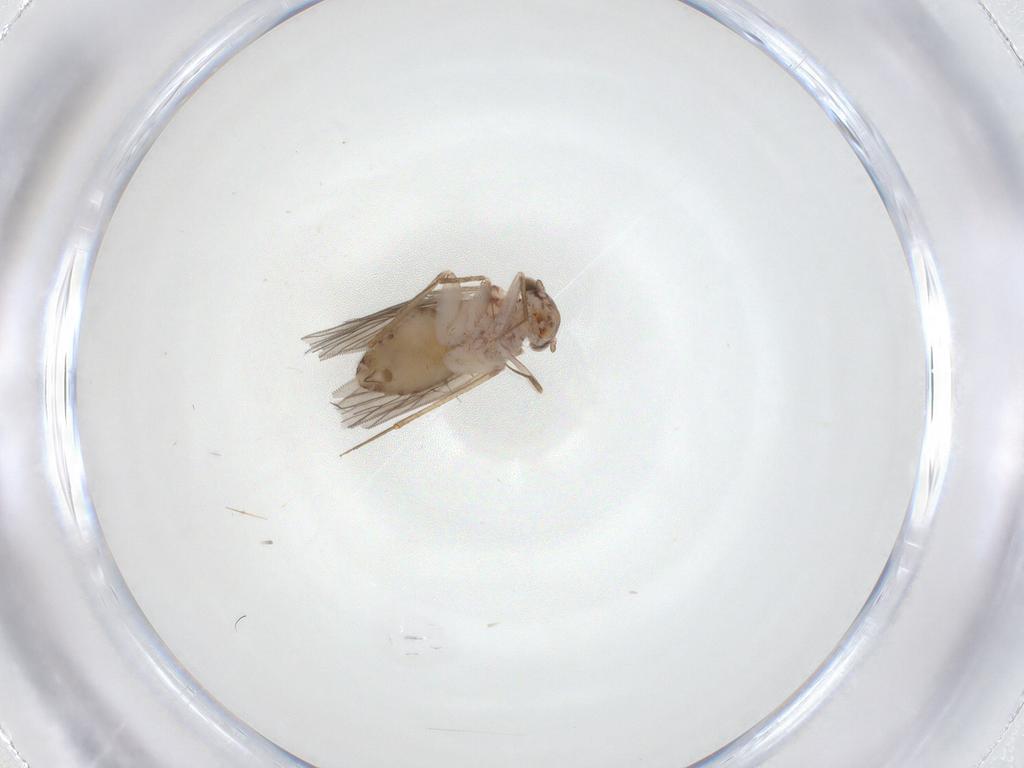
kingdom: Animalia
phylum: Arthropoda
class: Insecta
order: Psocodea
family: Lepidopsocidae
